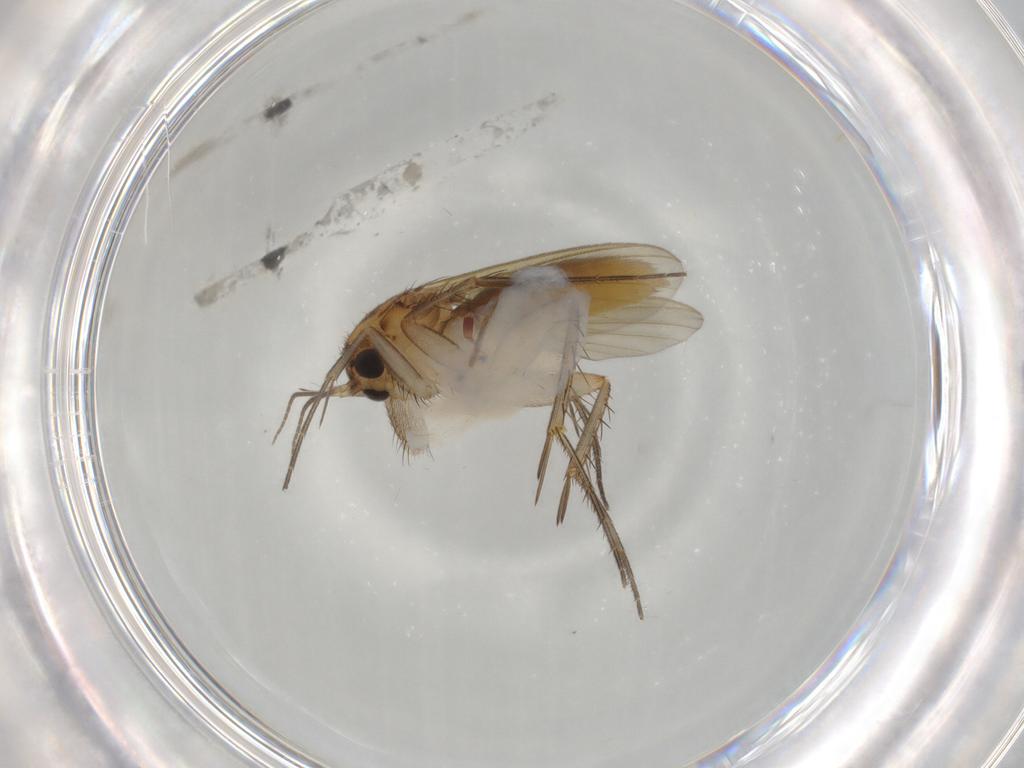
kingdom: Animalia
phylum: Arthropoda
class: Insecta
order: Diptera
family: Mycetophilidae
